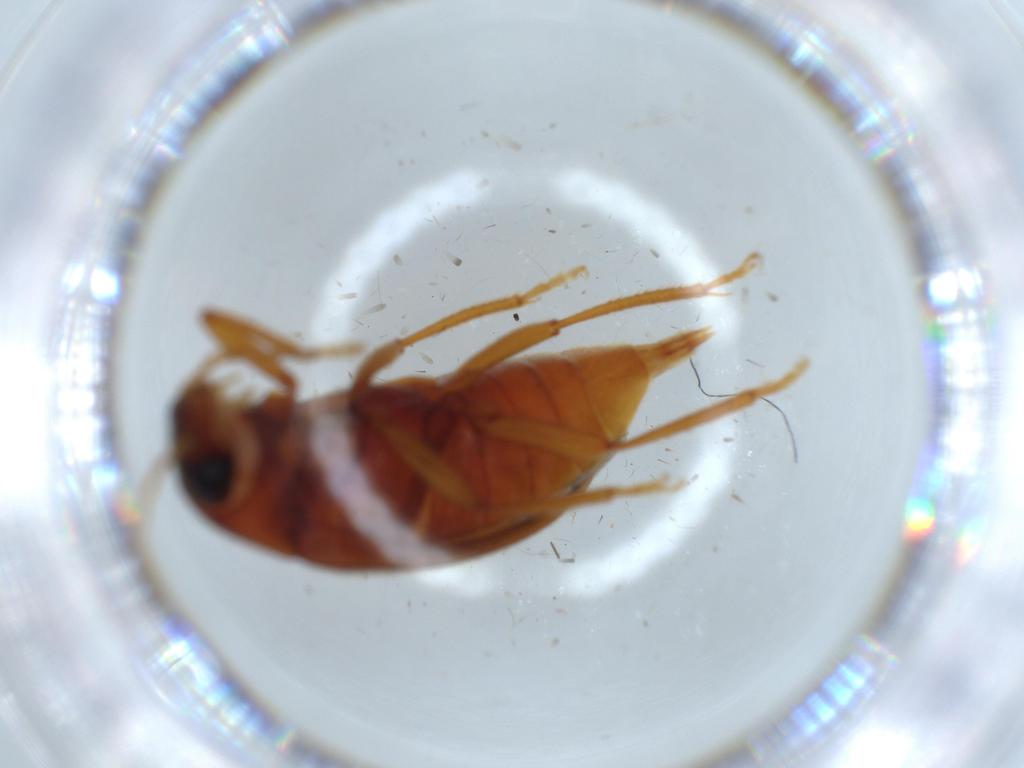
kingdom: Animalia
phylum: Arthropoda
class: Insecta
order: Coleoptera
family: Ptilodactylidae
